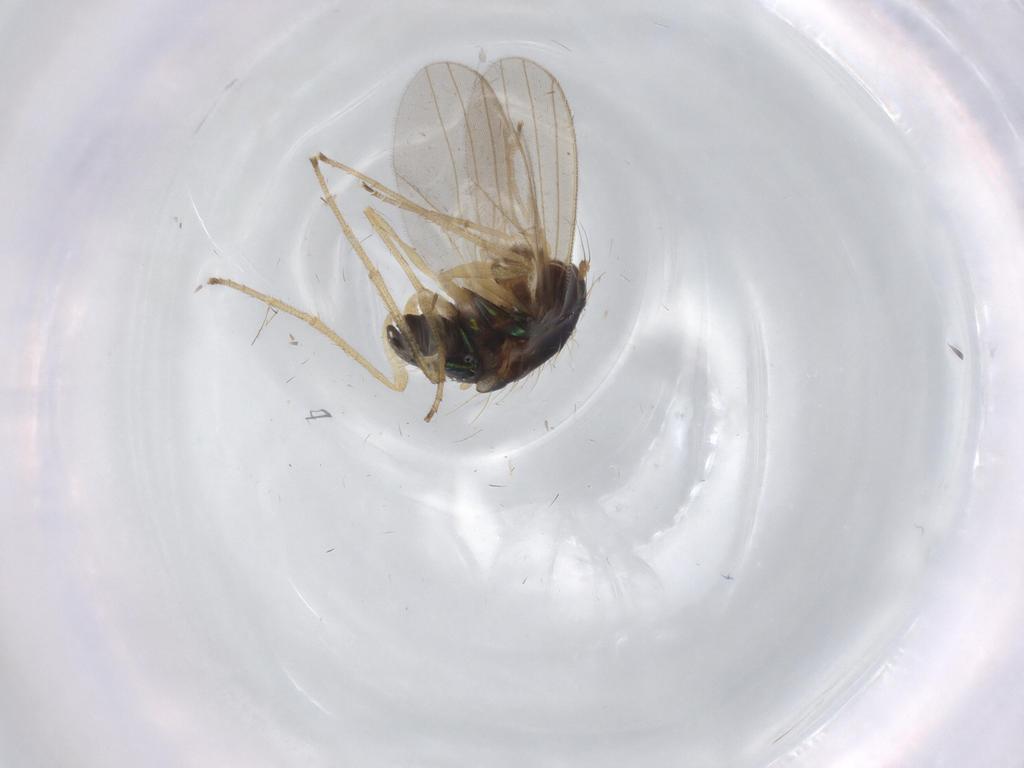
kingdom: Animalia
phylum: Arthropoda
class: Insecta
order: Diptera
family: Dolichopodidae
